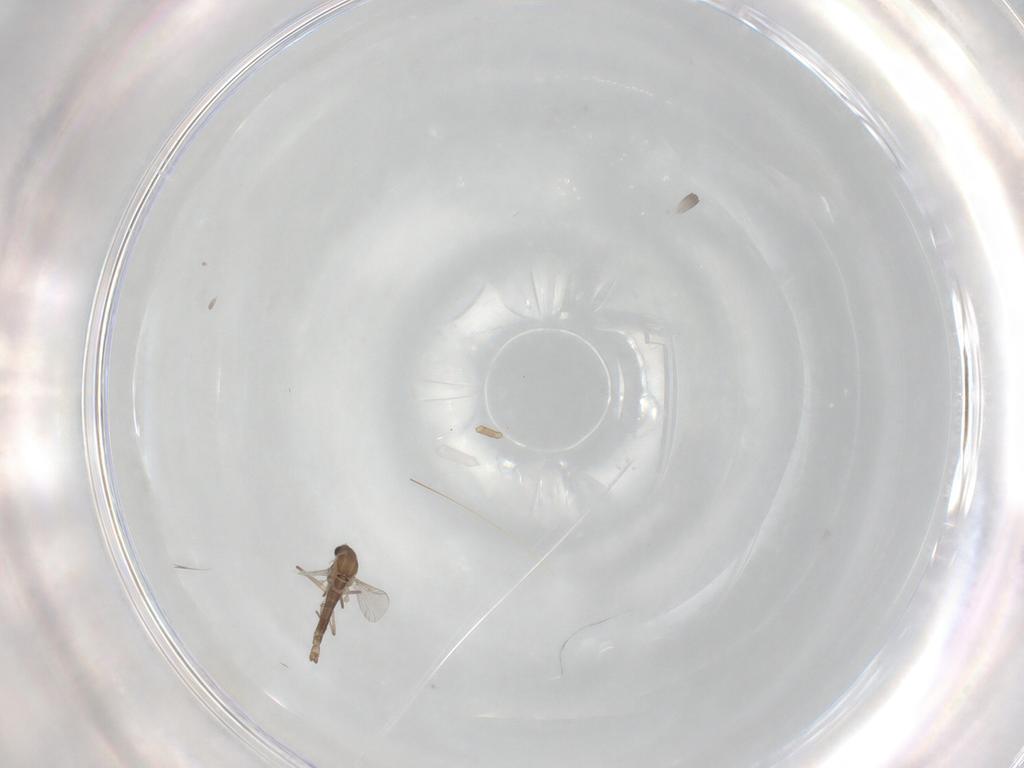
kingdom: Animalia
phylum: Arthropoda
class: Insecta
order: Diptera
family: Chironomidae
